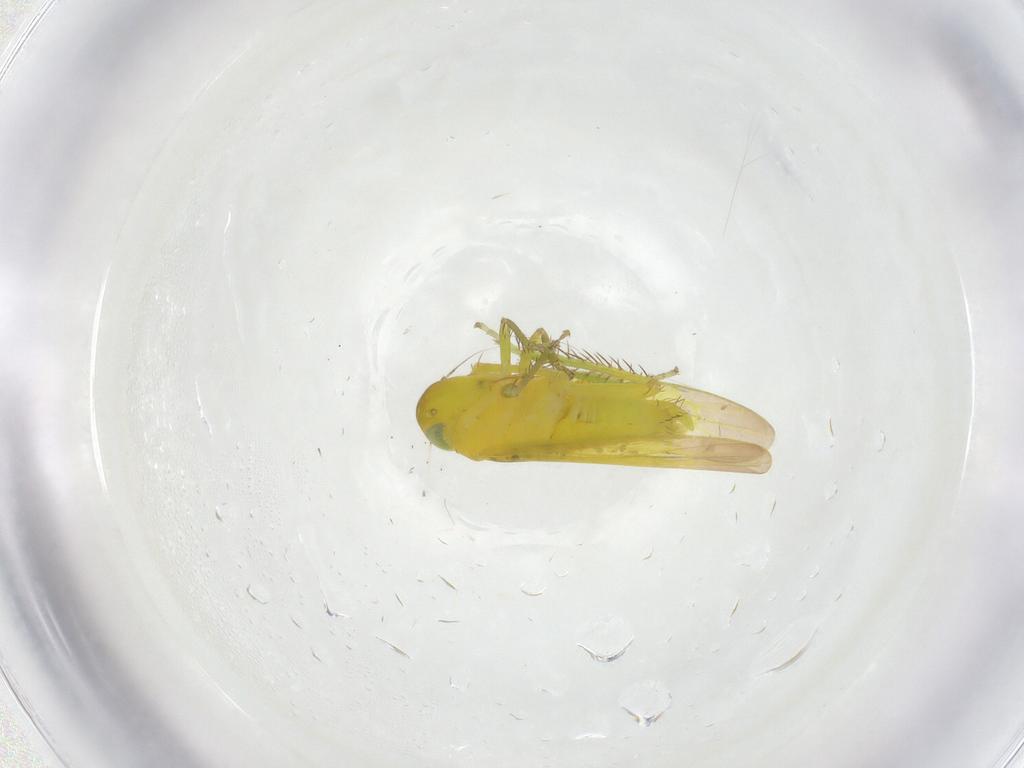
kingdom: Animalia
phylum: Arthropoda
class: Insecta
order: Hemiptera
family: Cicadellidae
